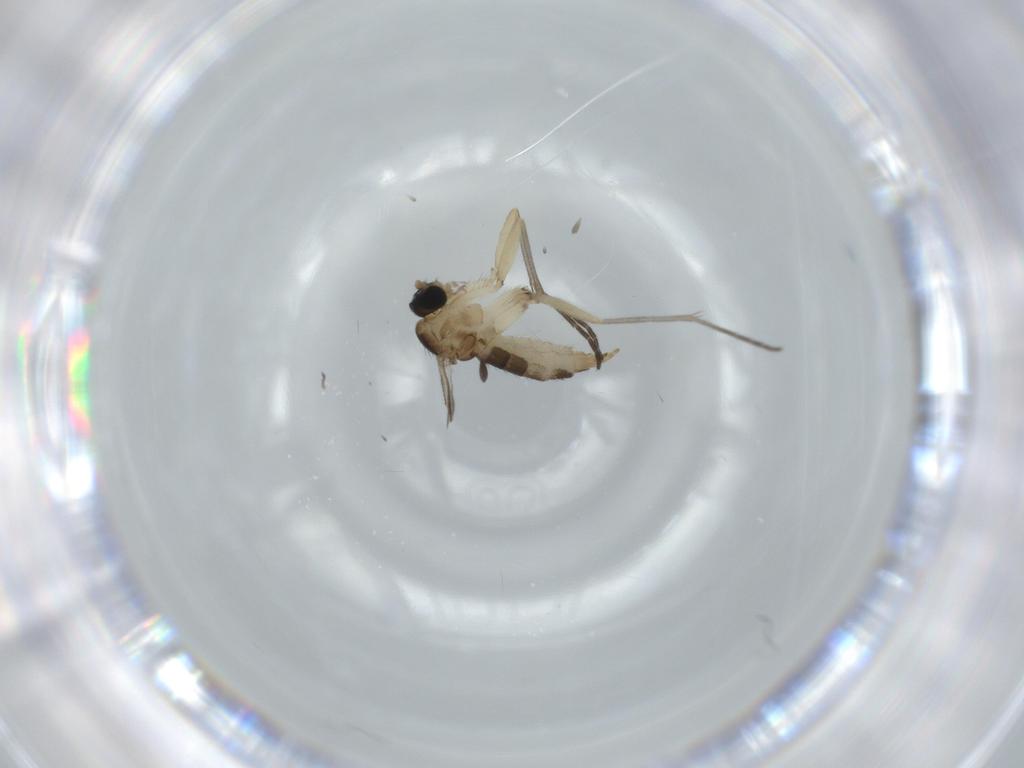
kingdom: Animalia
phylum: Arthropoda
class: Insecta
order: Diptera
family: Sciaridae
